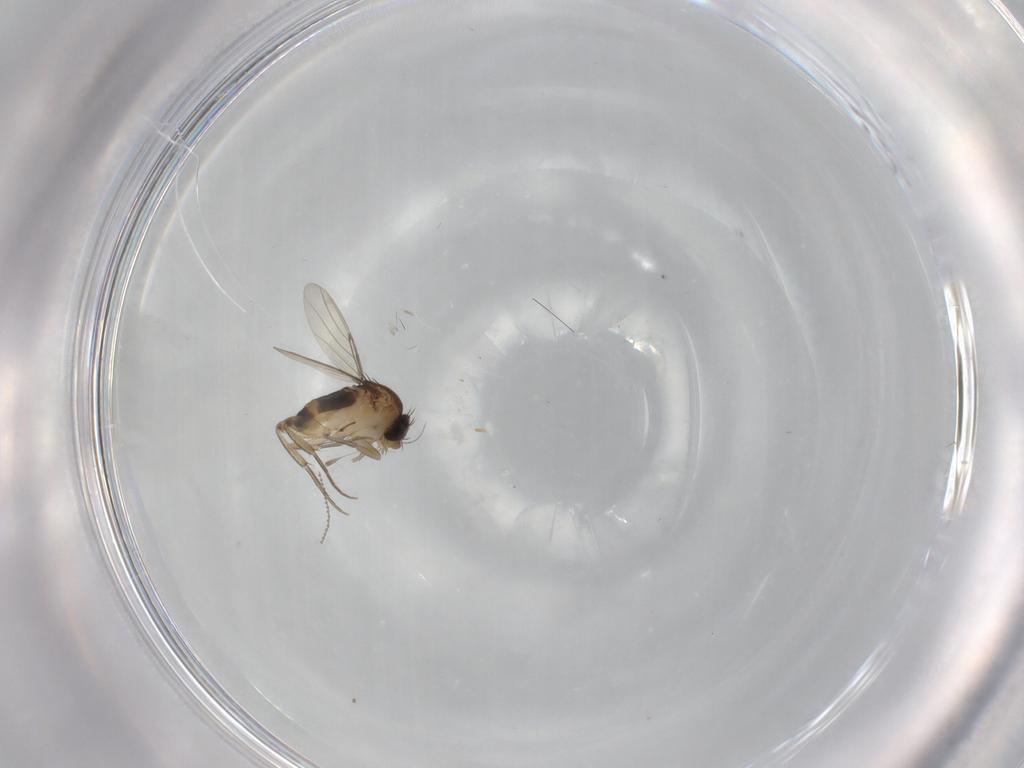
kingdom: Animalia
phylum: Arthropoda
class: Insecta
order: Diptera
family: Phoridae
